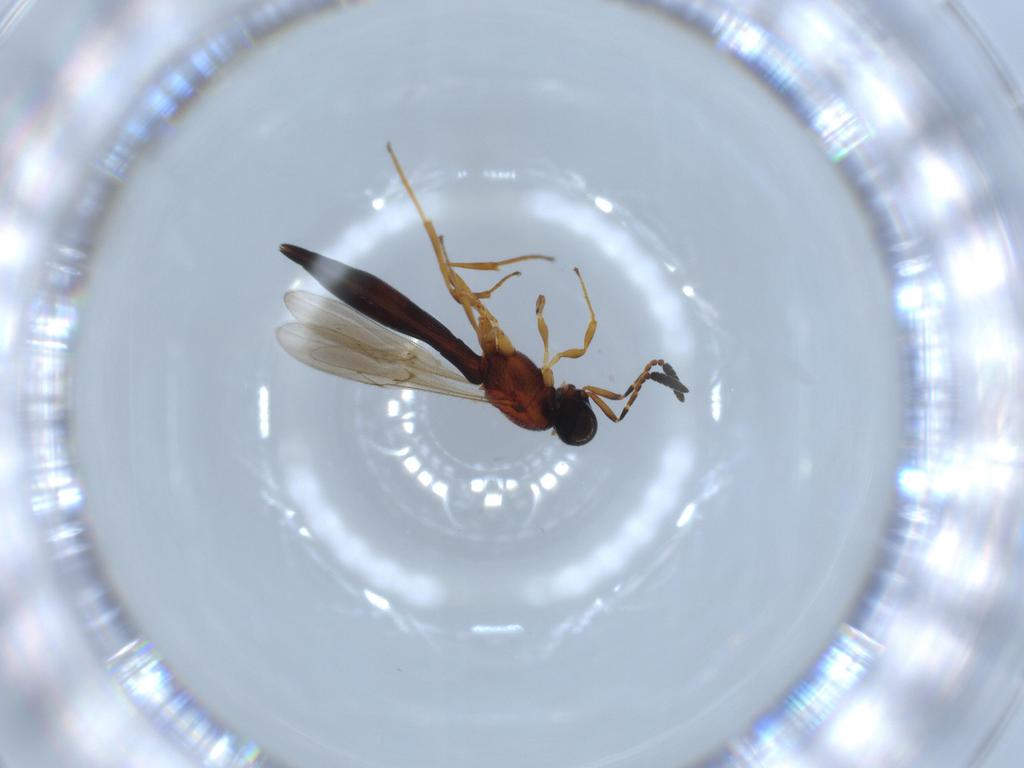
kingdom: Animalia
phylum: Arthropoda
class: Insecta
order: Hymenoptera
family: Scelionidae
